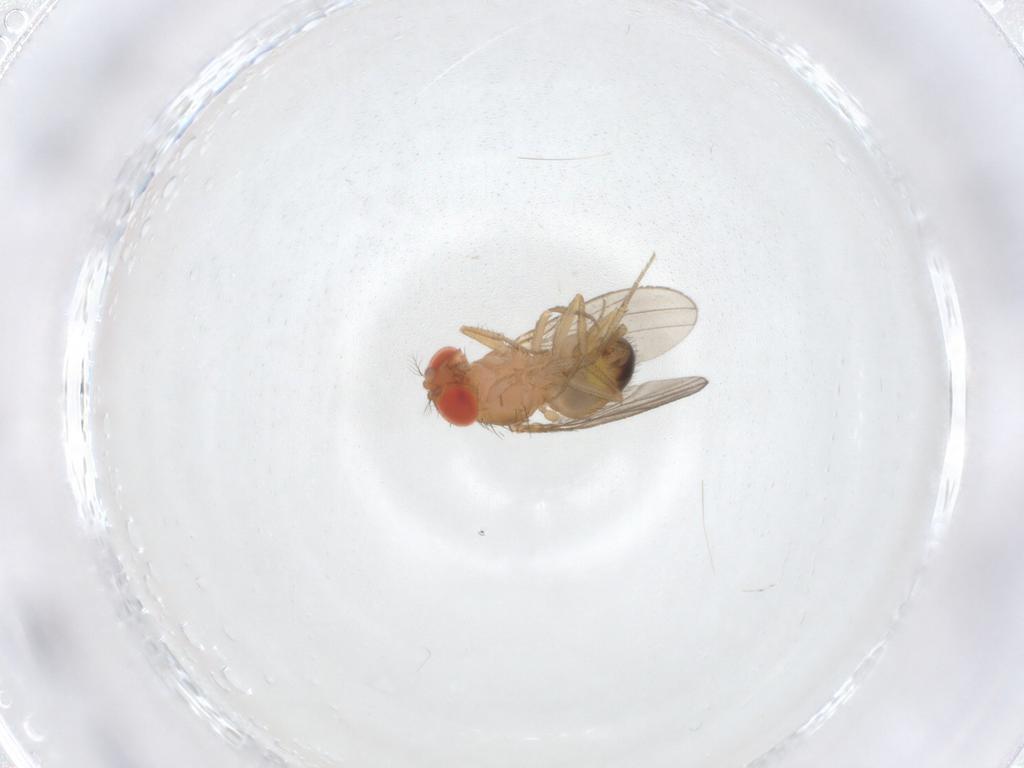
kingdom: Animalia
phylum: Arthropoda
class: Insecta
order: Diptera
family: Drosophilidae
